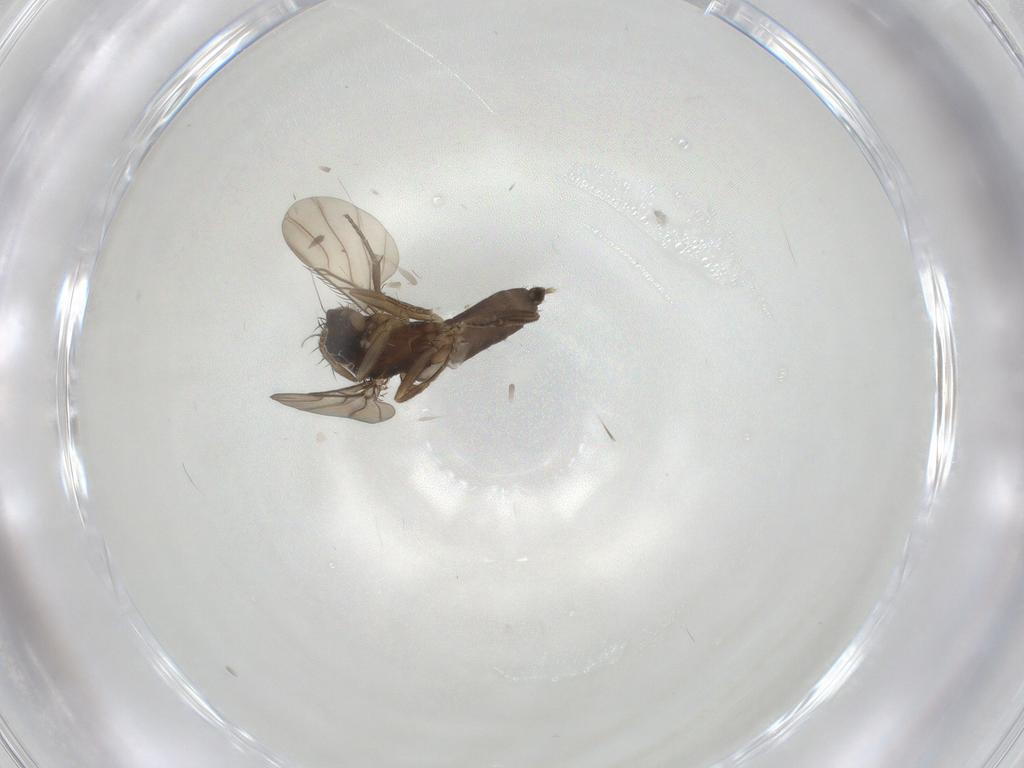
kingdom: Animalia
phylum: Arthropoda
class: Insecta
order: Diptera
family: Phoridae
